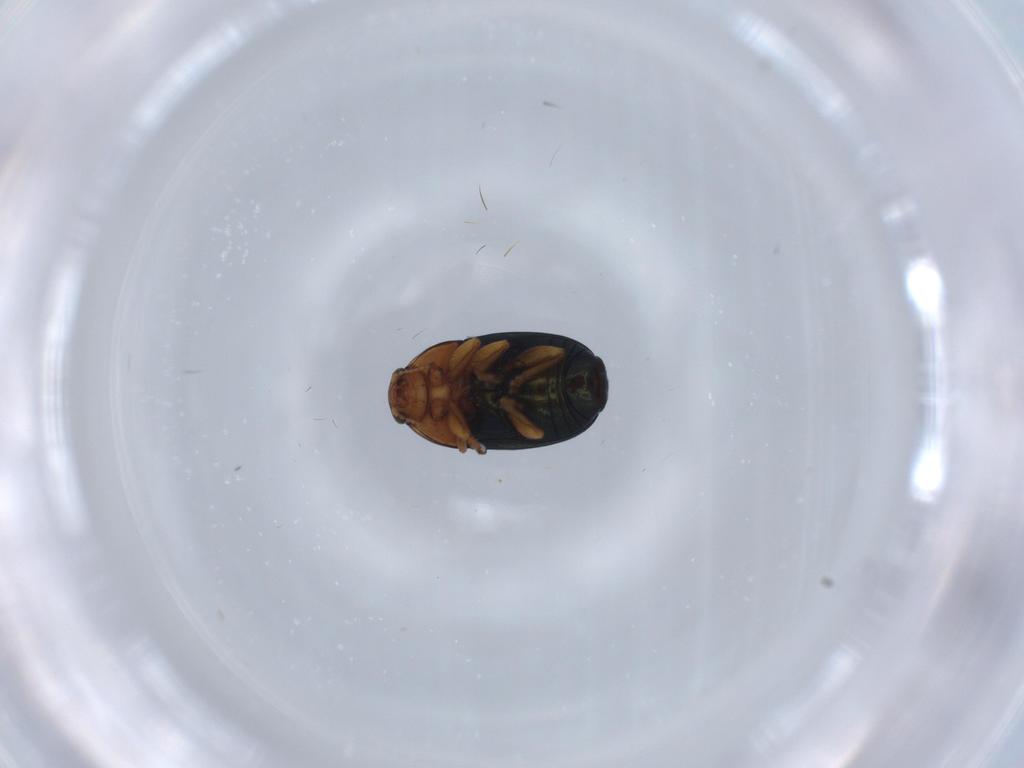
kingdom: Animalia
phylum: Arthropoda
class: Insecta
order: Coleoptera
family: Chrysomelidae
